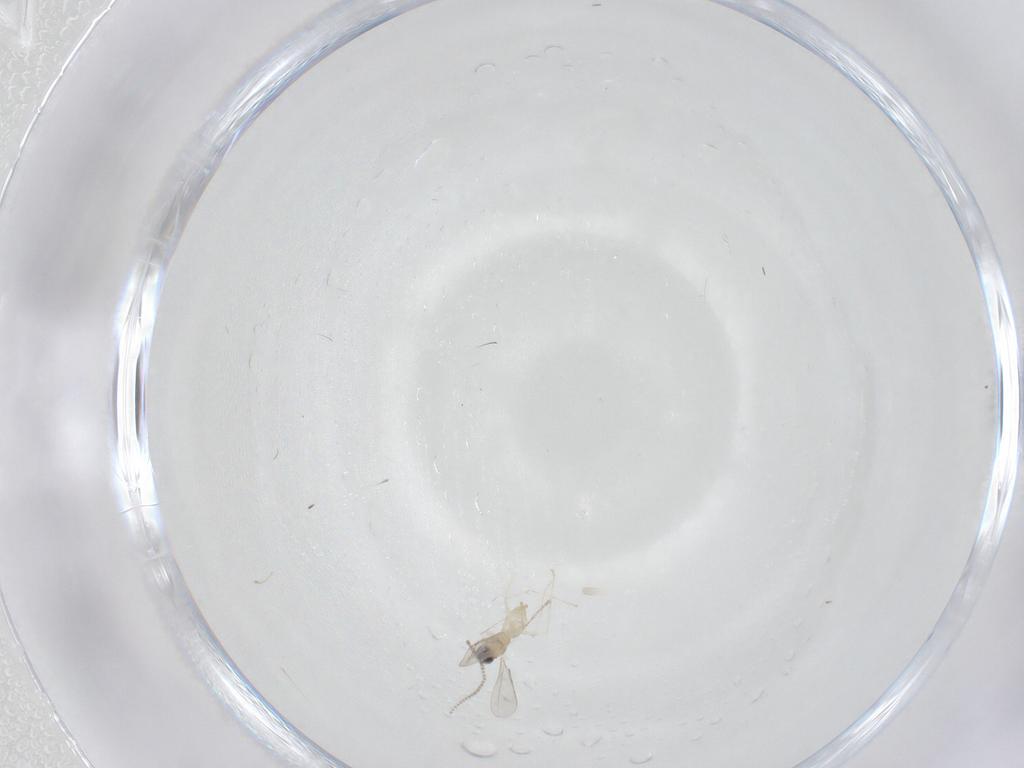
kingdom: Animalia
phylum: Arthropoda
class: Insecta
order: Diptera
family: Cecidomyiidae
